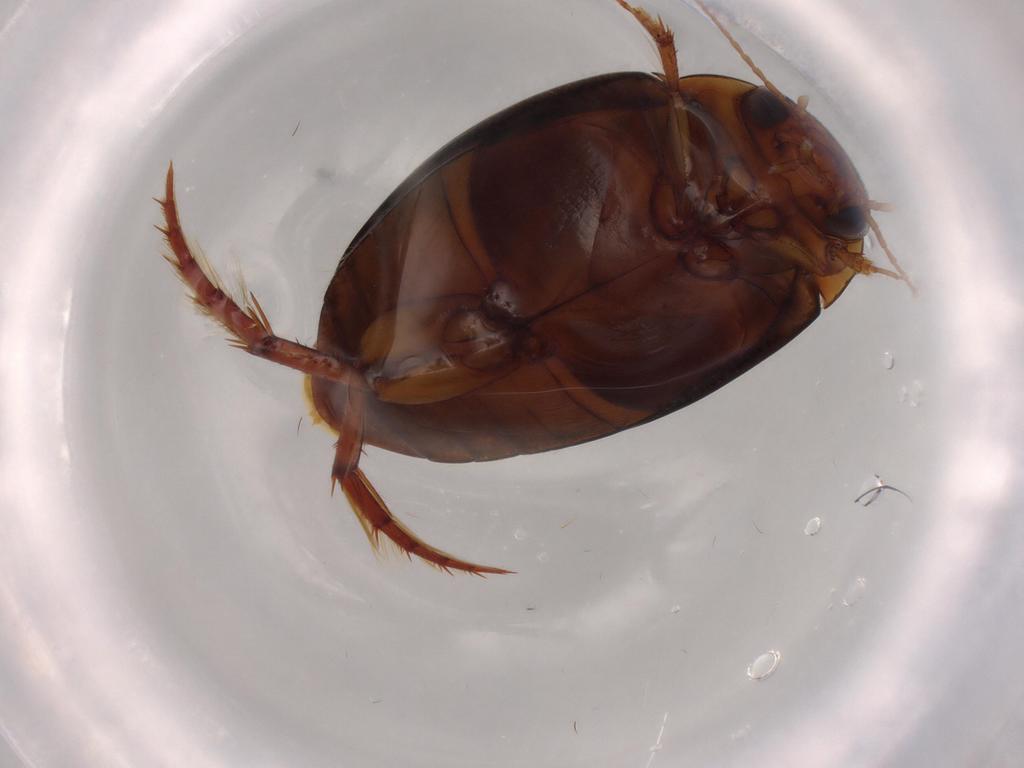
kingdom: Animalia
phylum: Arthropoda
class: Insecta
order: Coleoptera
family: Dytiscidae
